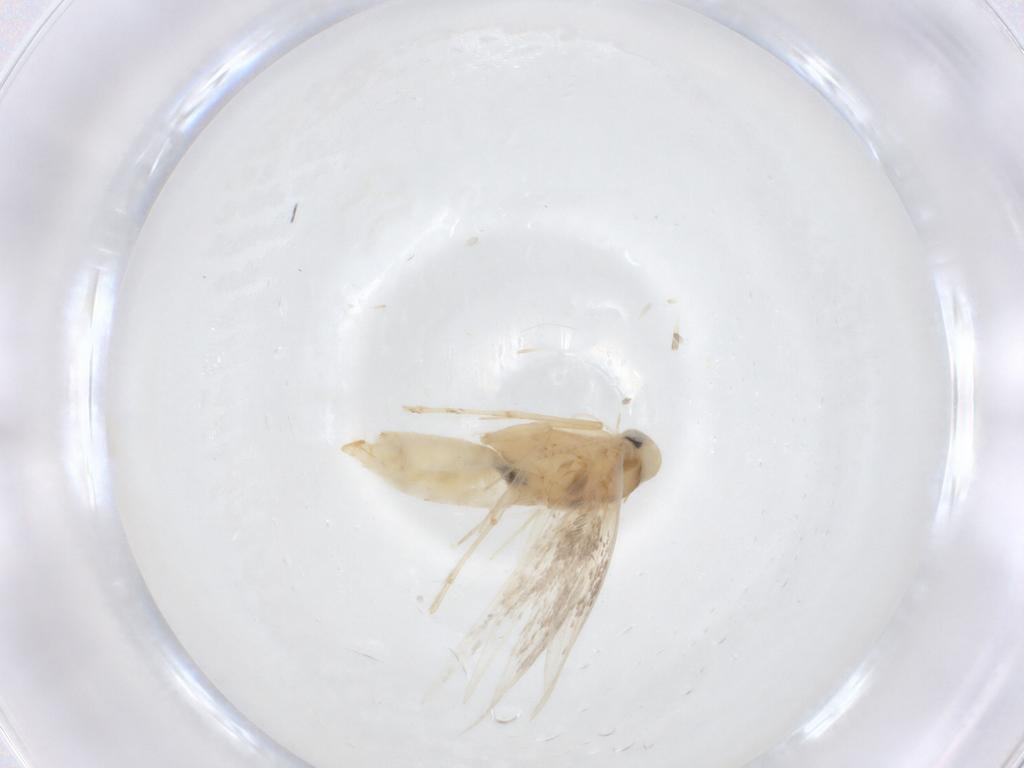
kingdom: Animalia
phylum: Arthropoda
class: Insecta
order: Lepidoptera
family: Gracillariidae
